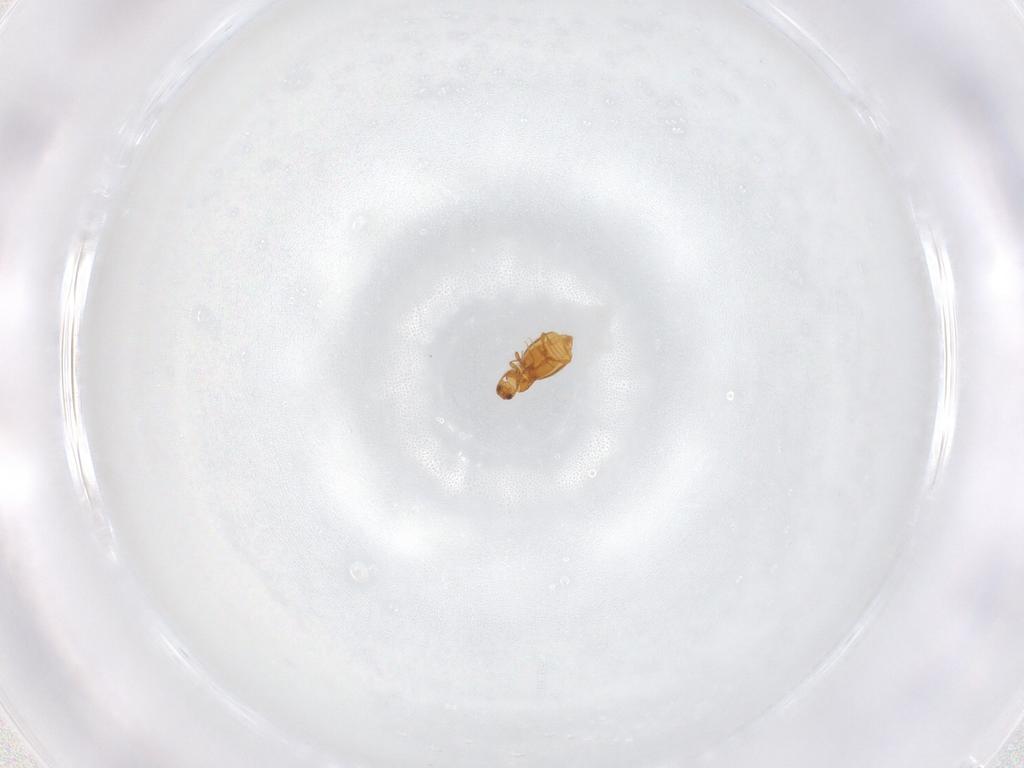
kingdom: Animalia
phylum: Arthropoda
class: Insecta
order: Coleoptera
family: Staphylinidae
